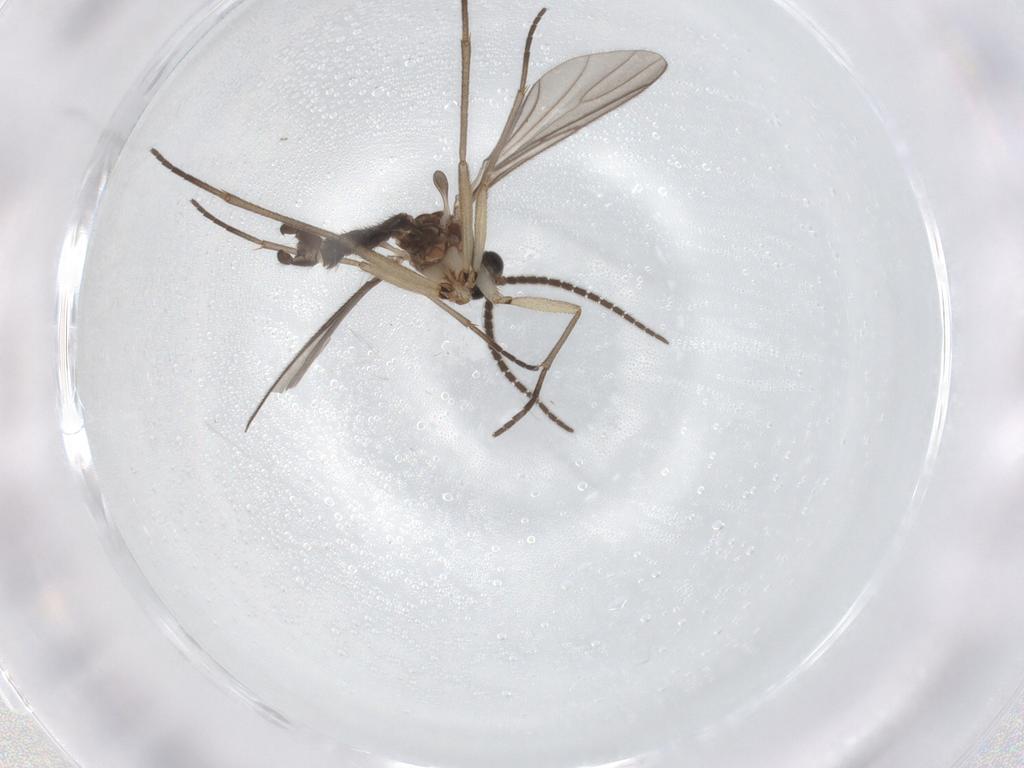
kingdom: Animalia
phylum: Arthropoda
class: Insecta
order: Diptera
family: Sciaridae
